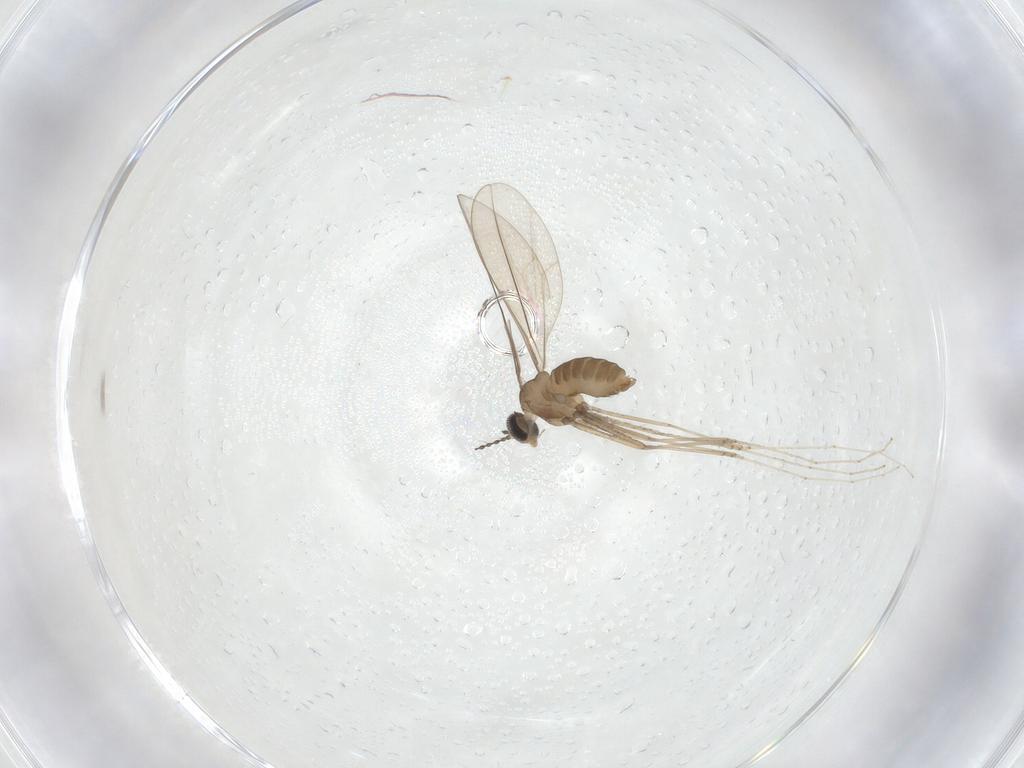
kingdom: Animalia
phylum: Arthropoda
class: Insecta
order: Diptera
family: Cecidomyiidae
